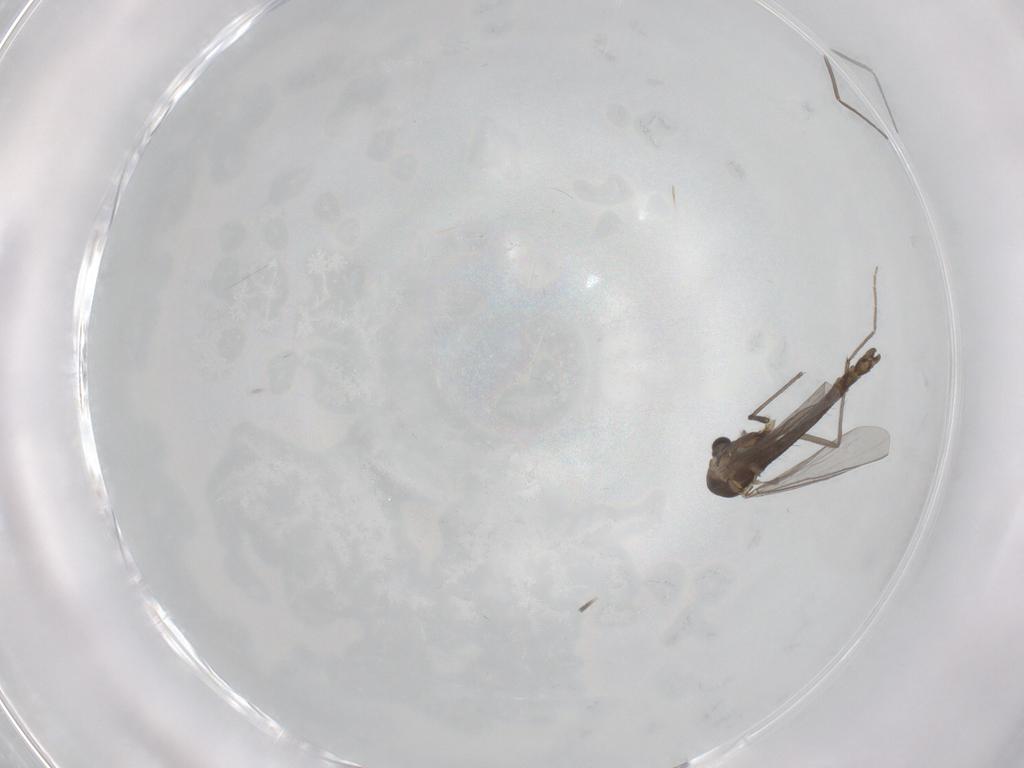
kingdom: Animalia
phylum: Arthropoda
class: Insecta
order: Diptera
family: Chironomidae
